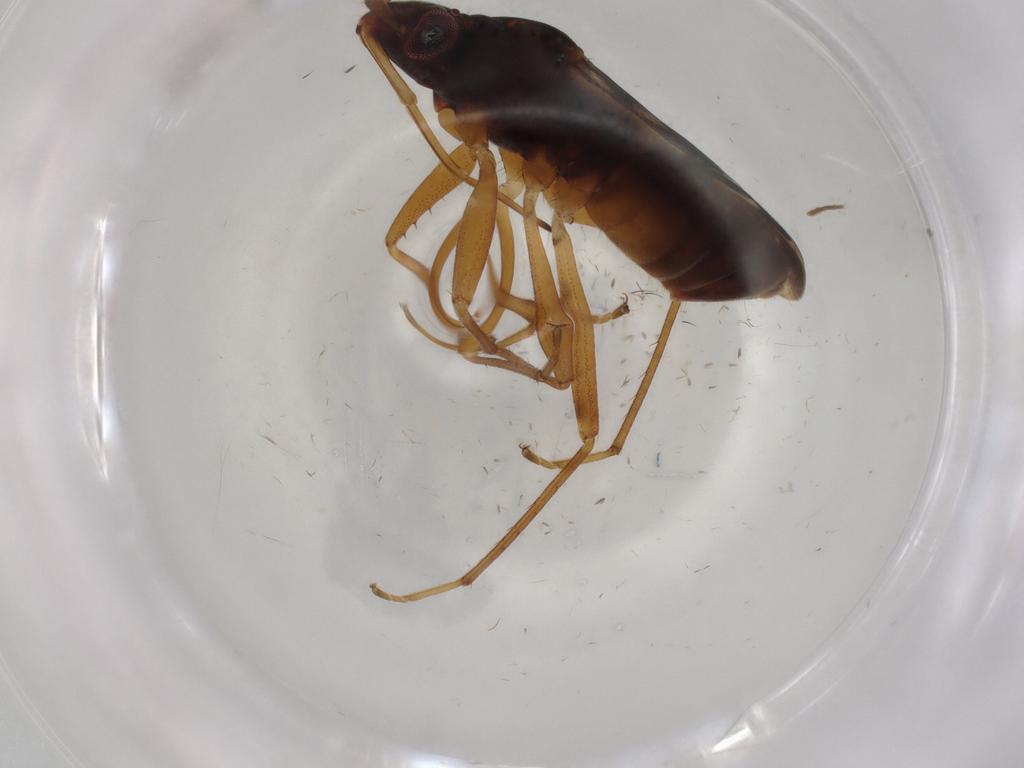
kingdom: Animalia
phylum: Arthropoda
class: Insecta
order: Hemiptera
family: Rhyparochromidae
